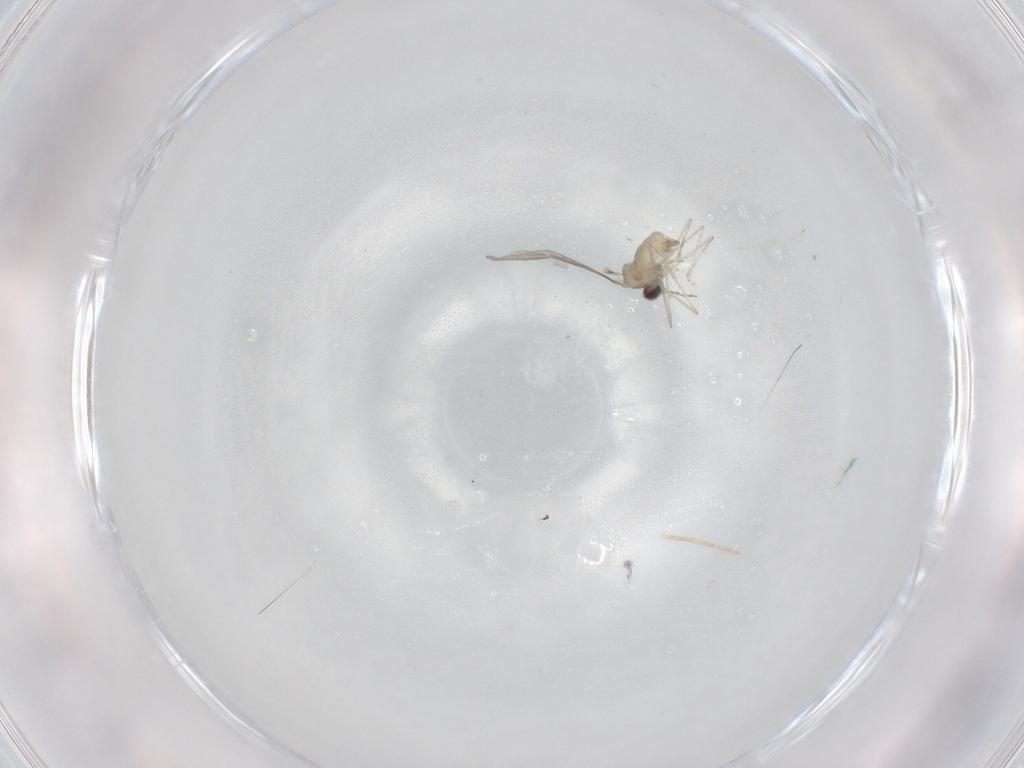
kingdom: Animalia
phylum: Arthropoda
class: Insecta
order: Diptera
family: Cecidomyiidae
